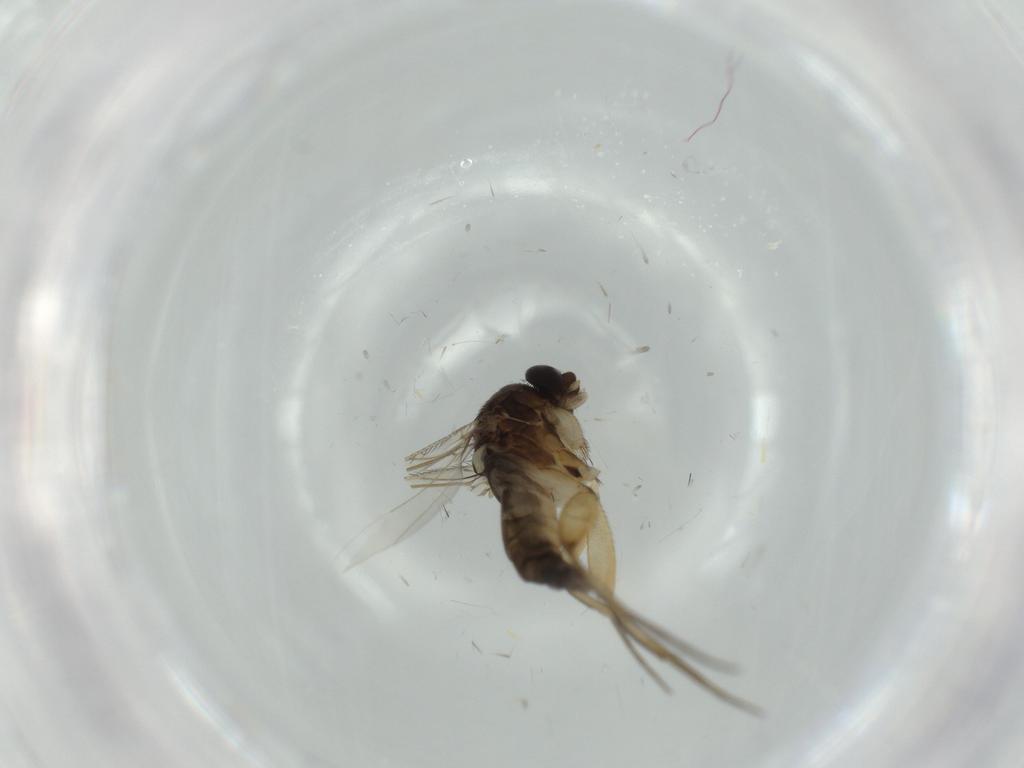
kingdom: Animalia
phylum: Arthropoda
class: Insecta
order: Diptera
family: Phoridae
